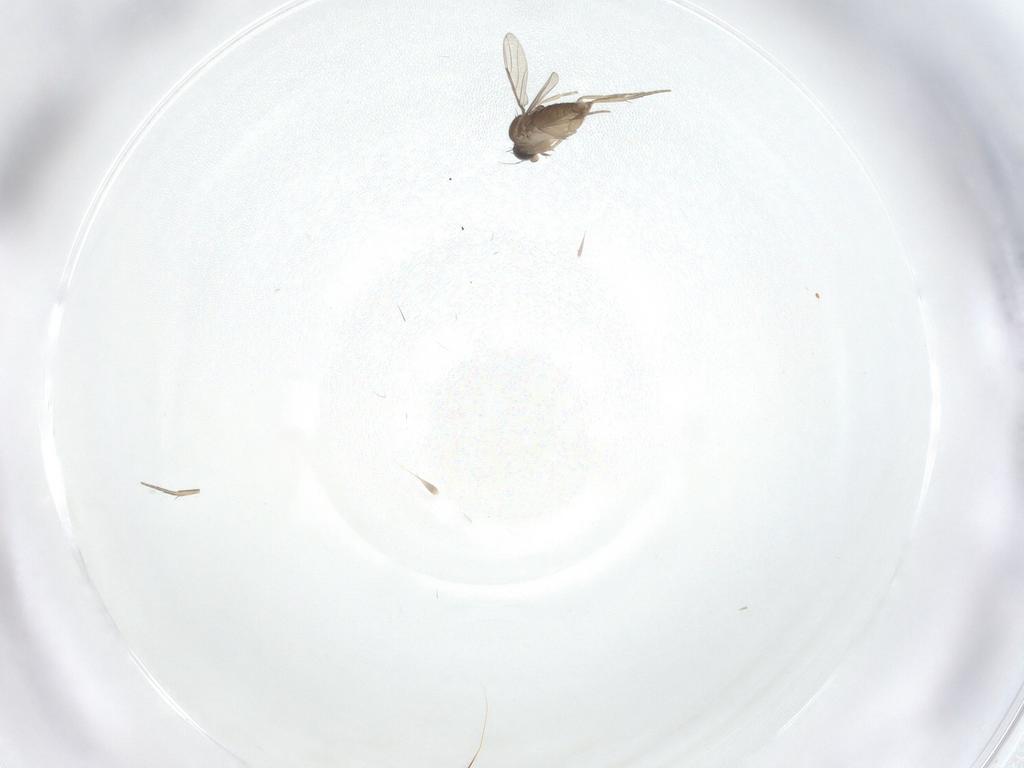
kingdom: Animalia
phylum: Arthropoda
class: Insecta
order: Diptera
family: Phoridae
